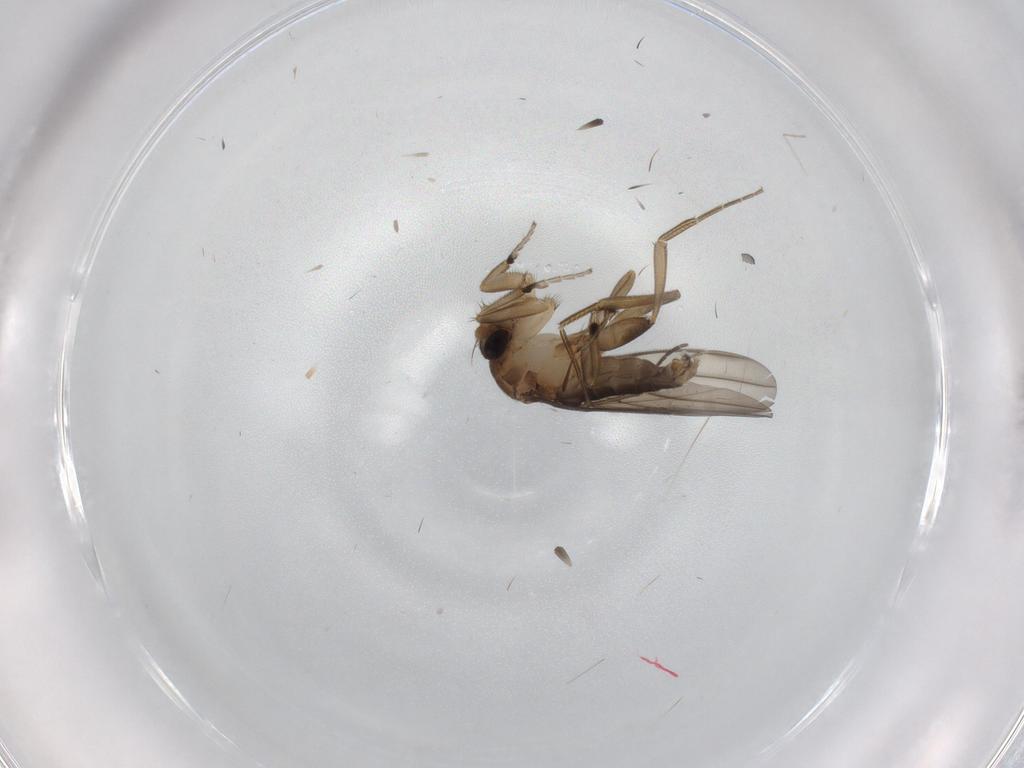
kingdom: Animalia
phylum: Arthropoda
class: Insecta
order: Diptera
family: Cecidomyiidae
